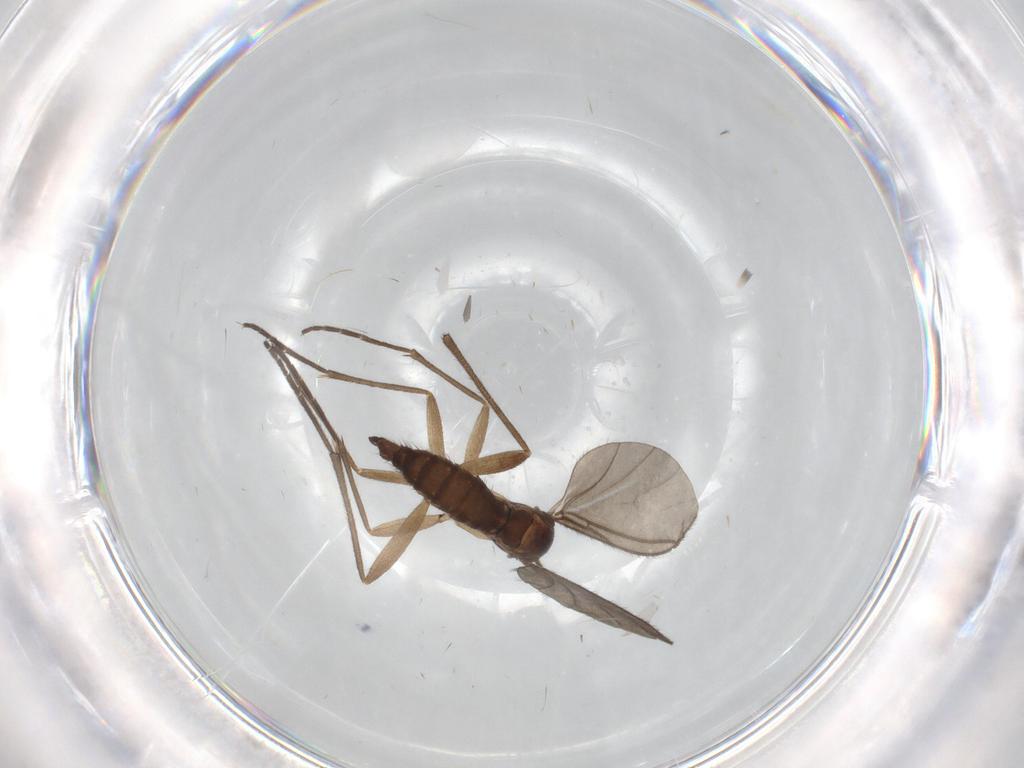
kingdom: Animalia
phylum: Arthropoda
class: Insecta
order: Diptera
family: Sciaridae
